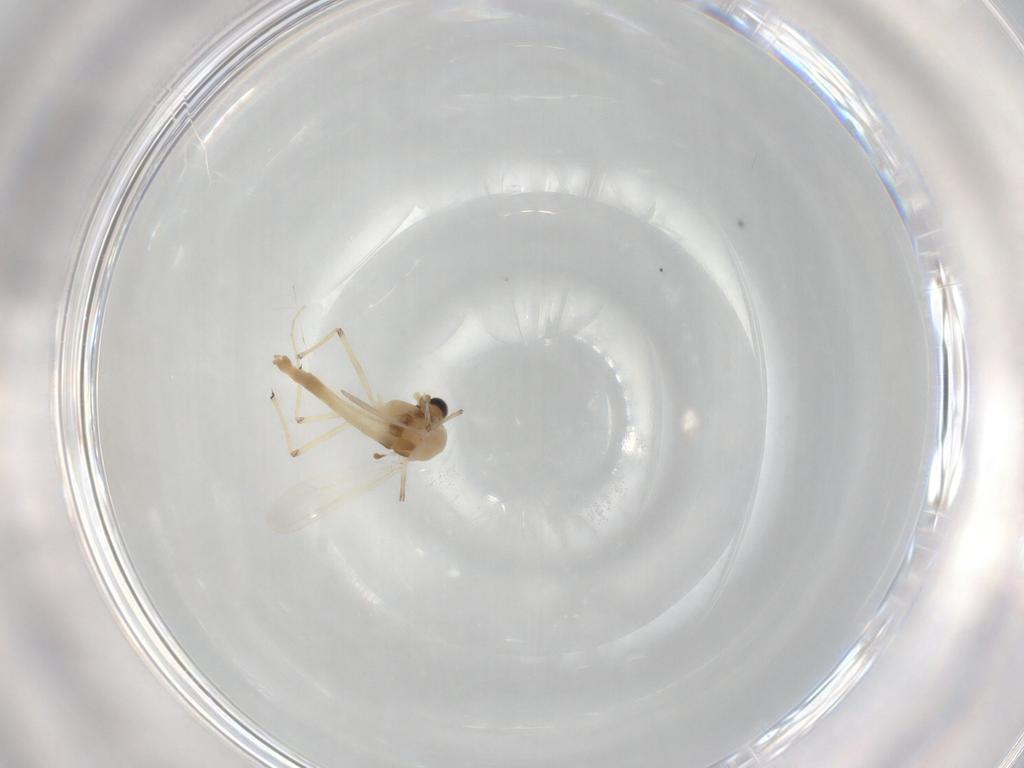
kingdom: Animalia
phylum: Arthropoda
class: Insecta
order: Diptera
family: Chironomidae
